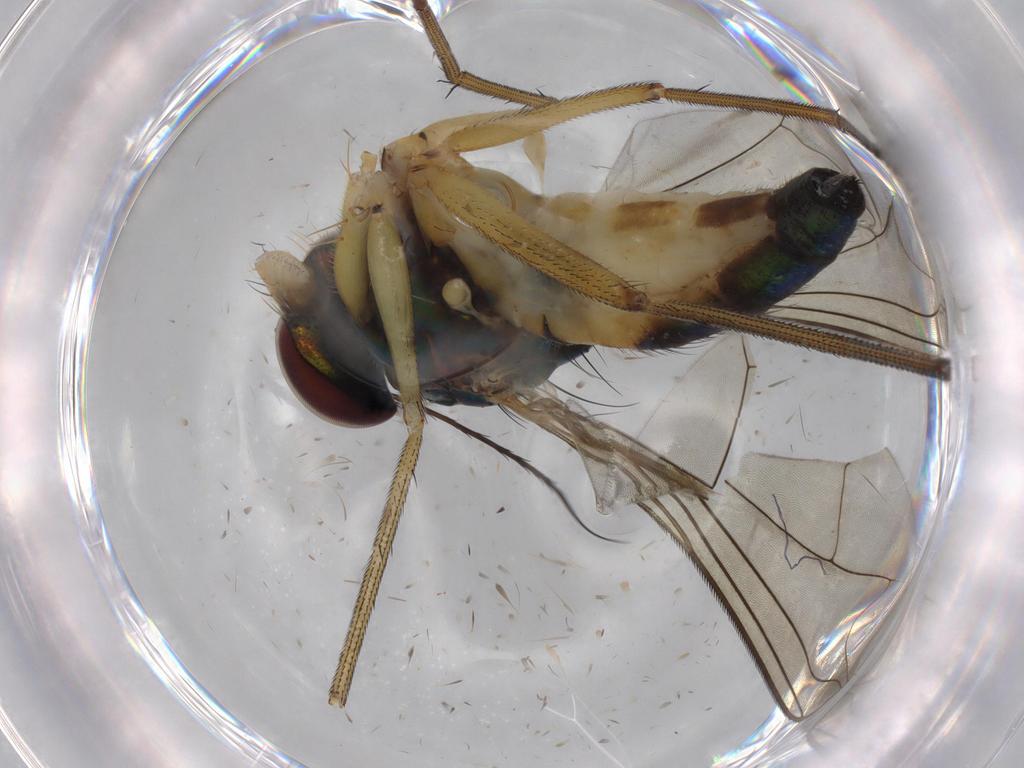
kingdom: Animalia
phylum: Arthropoda
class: Insecta
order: Diptera
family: Dolichopodidae
